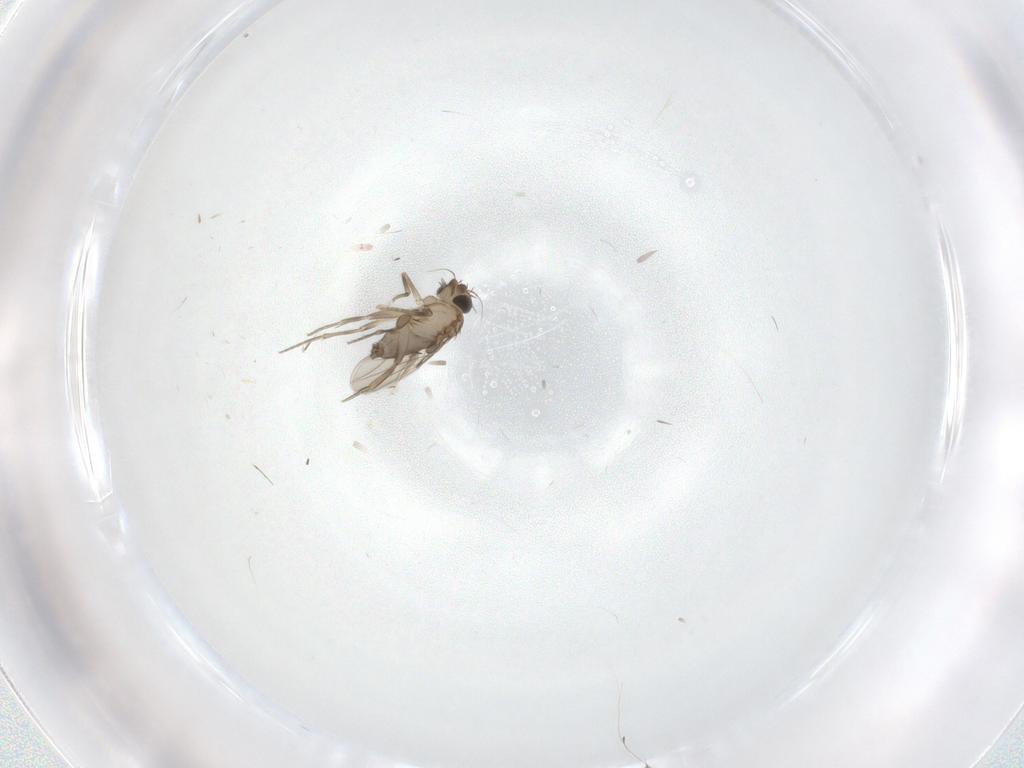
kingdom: Animalia
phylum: Arthropoda
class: Insecta
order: Diptera
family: Phoridae
